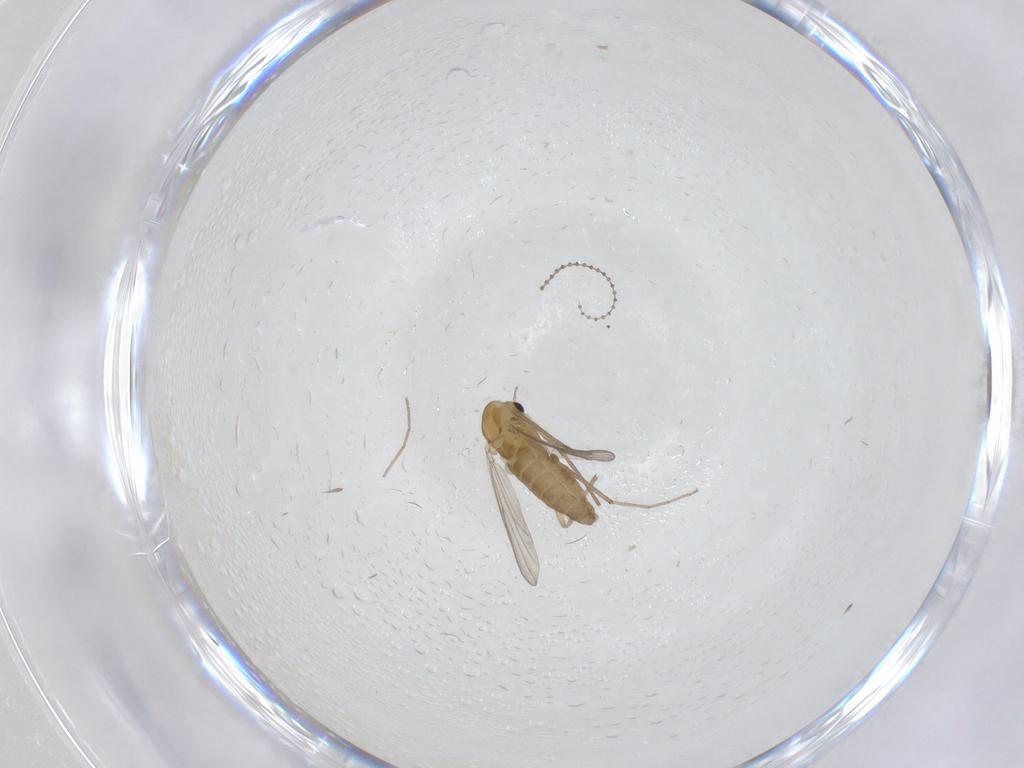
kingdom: Animalia
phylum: Arthropoda
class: Insecta
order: Diptera
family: Chironomidae
